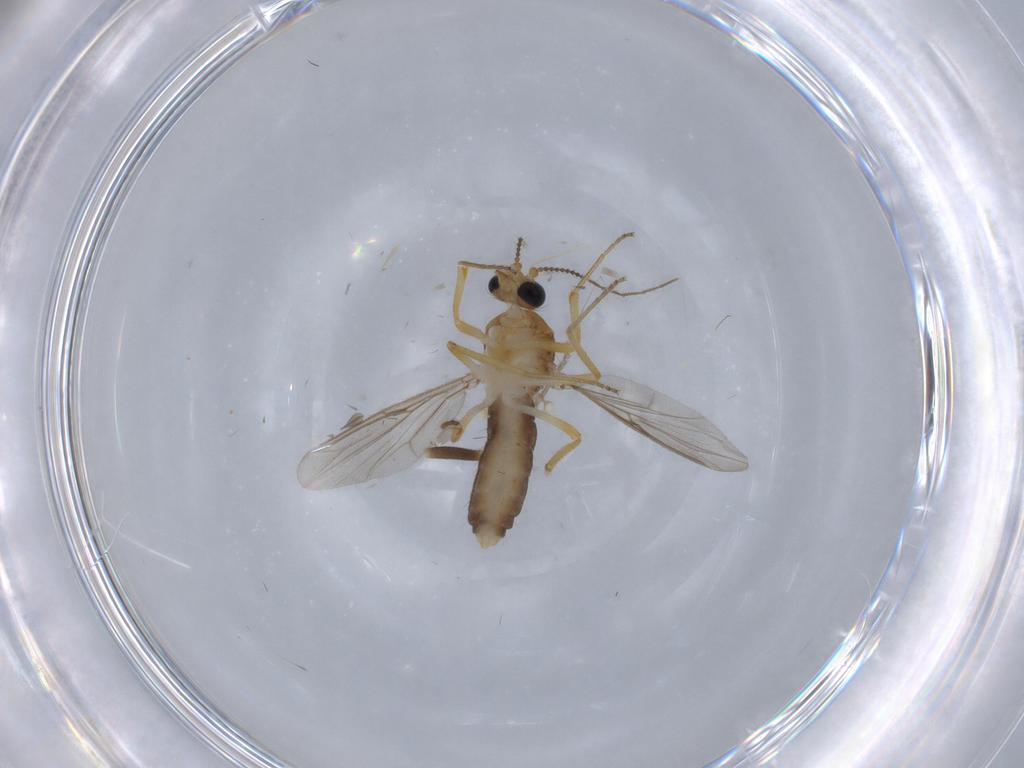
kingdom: Animalia
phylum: Arthropoda
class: Insecta
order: Diptera
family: Ceratopogonidae
